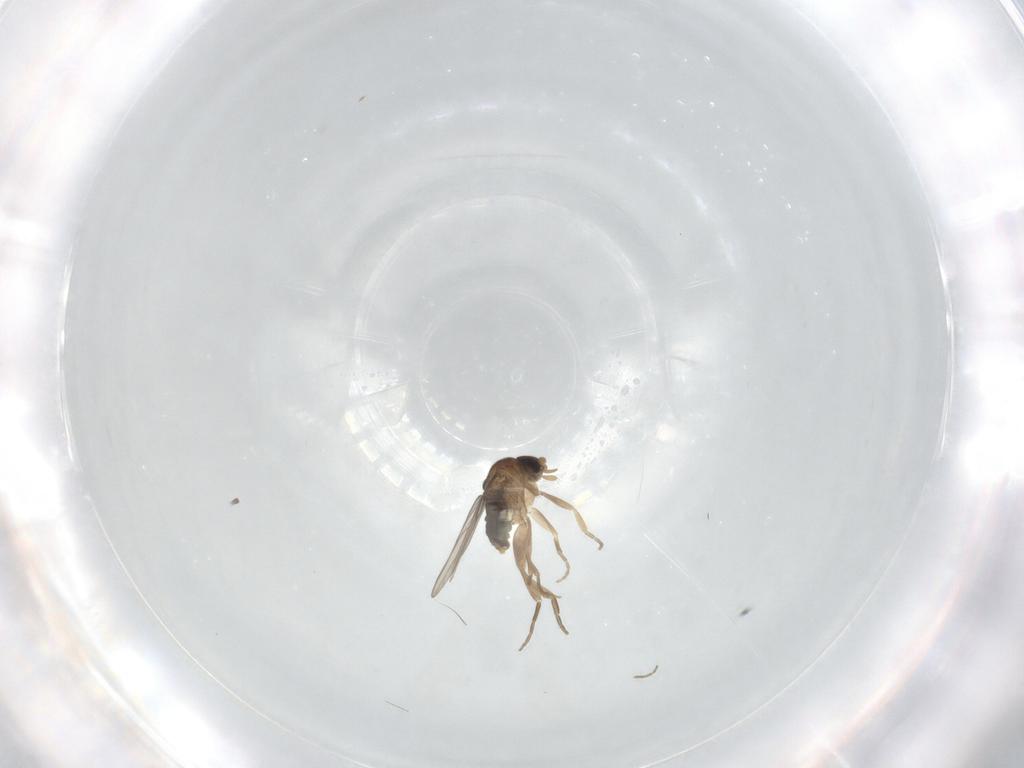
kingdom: Animalia
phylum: Arthropoda
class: Insecta
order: Diptera
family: Phoridae
